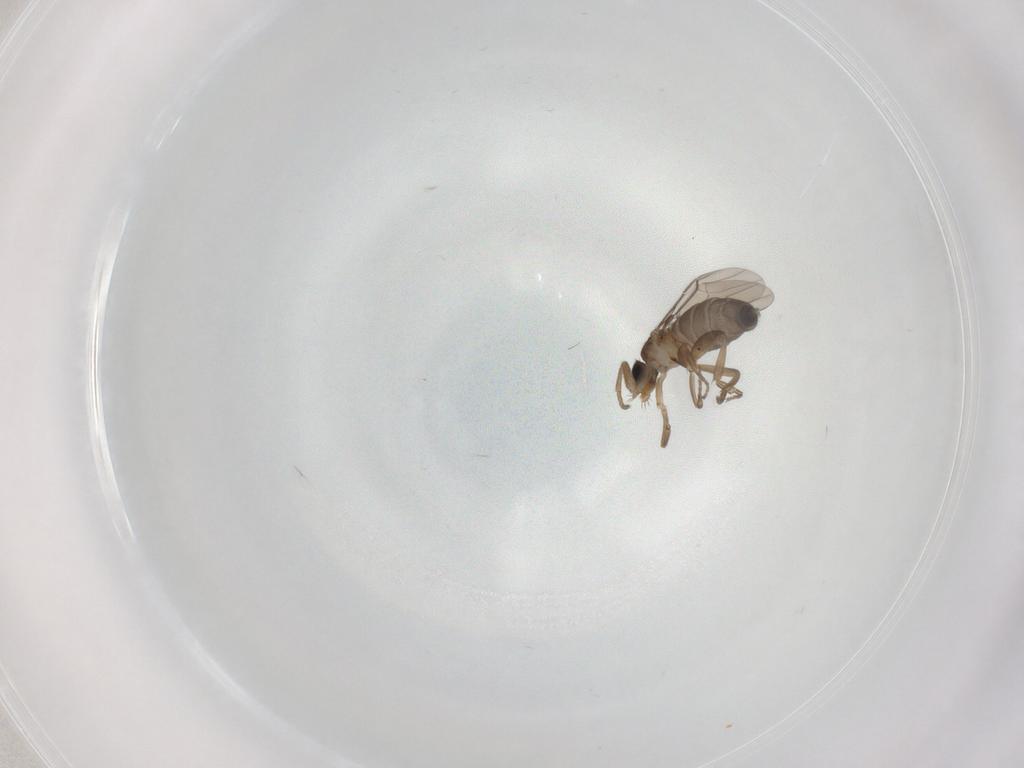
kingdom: Animalia
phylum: Arthropoda
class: Insecta
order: Diptera
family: Phoridae
